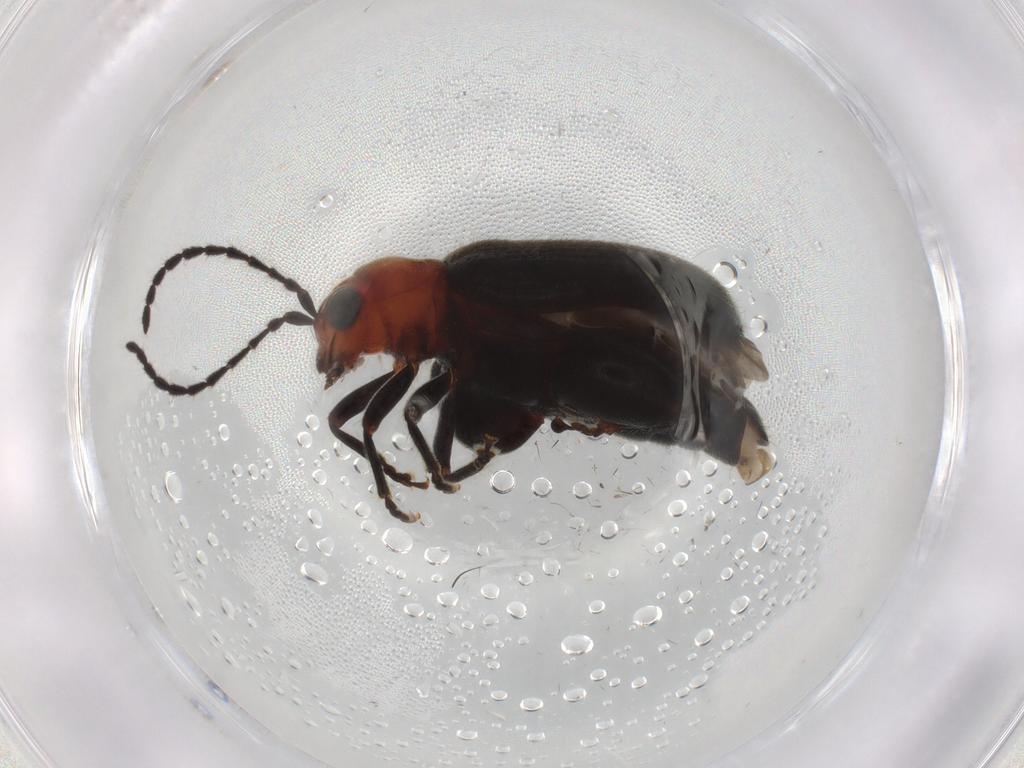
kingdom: Animalia
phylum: Arthropoda
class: Insecta
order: Coleoptera
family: Chrysomelidae
